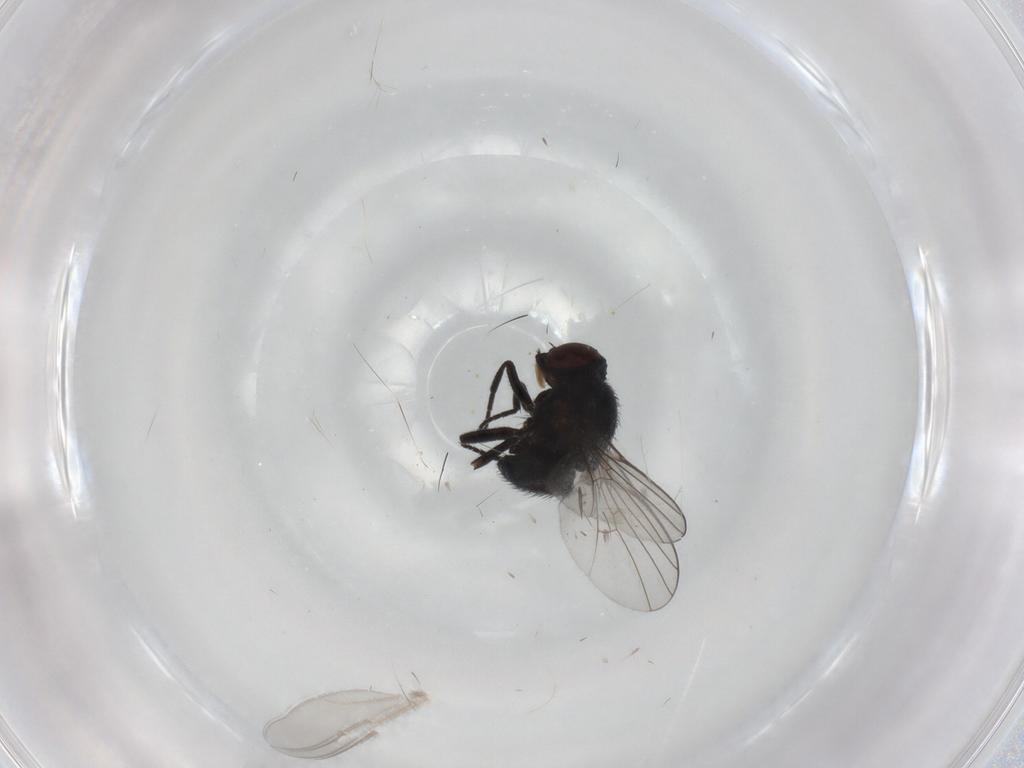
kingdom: Animalia
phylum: Arthropoda
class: Insecta
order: Diptera
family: Agromyzidae
